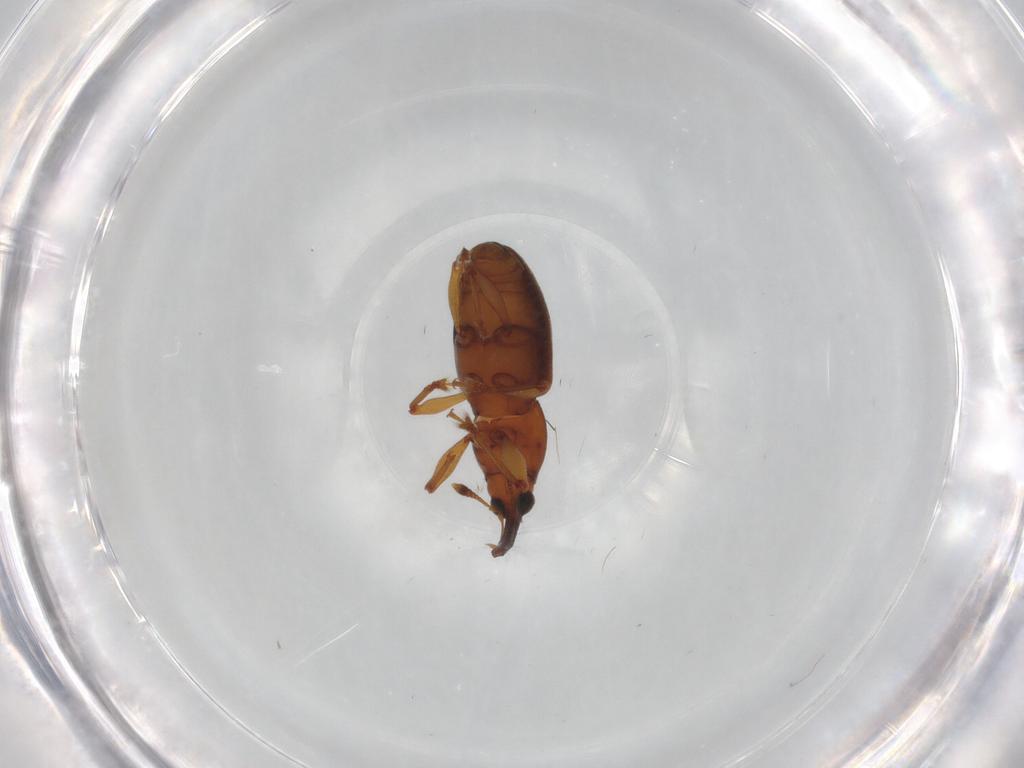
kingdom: Animalia
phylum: Arthropoda
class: Insecta
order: Coleoptera
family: Curculionidae
